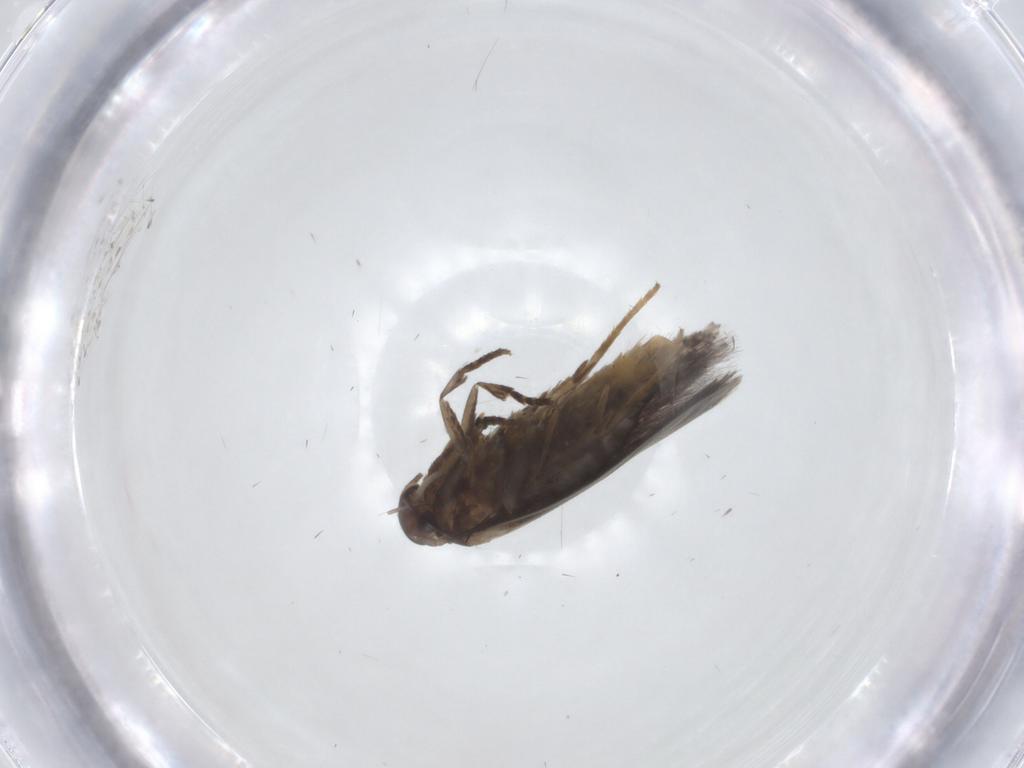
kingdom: Animalia
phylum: Arthropoda
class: Insecta
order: Lepidoptera
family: Elachistidae
